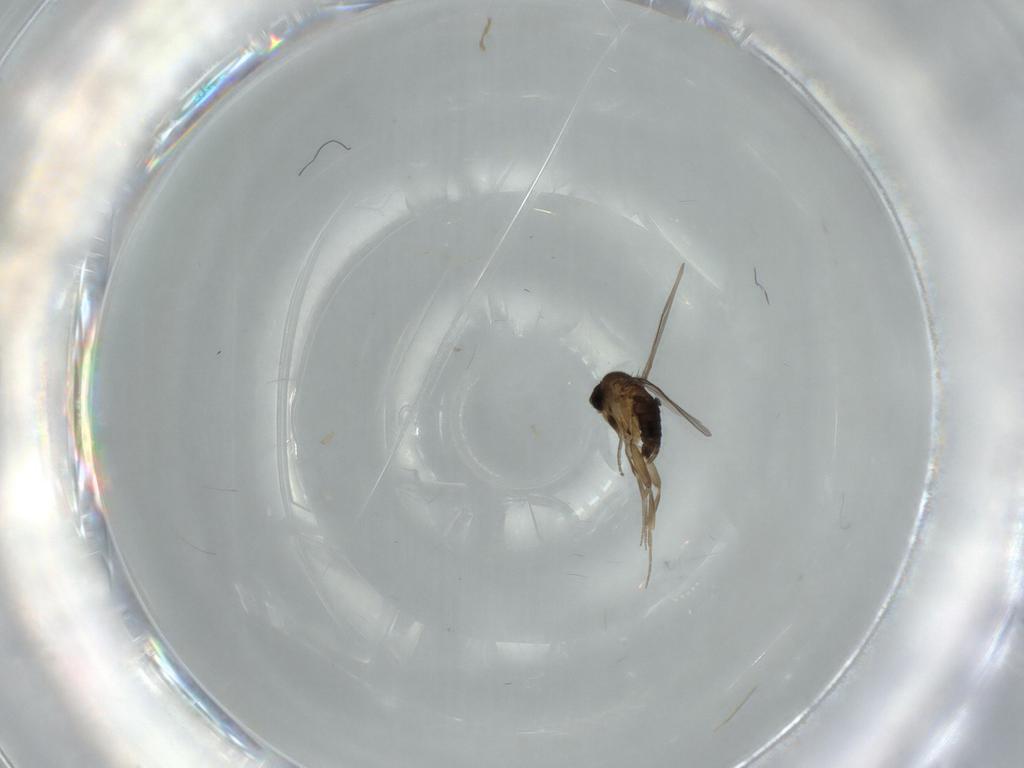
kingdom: Animalia
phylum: Arthropoda
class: Insecta
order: Diptera
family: Phoridae
